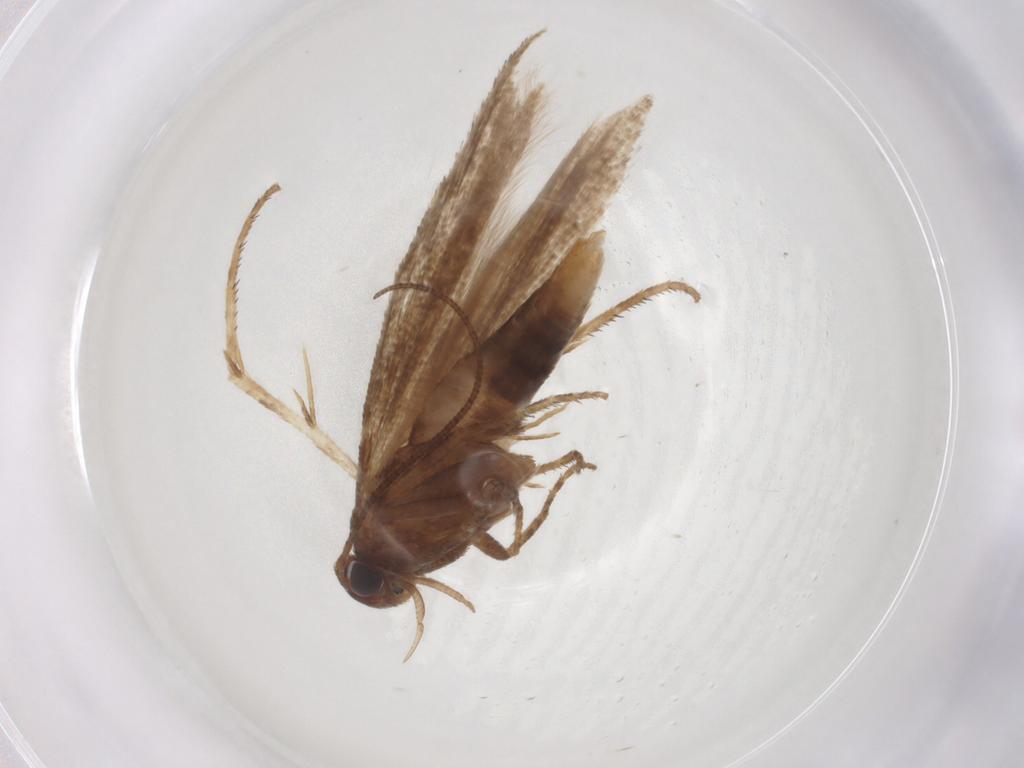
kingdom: Animalia
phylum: Arthropoda
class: Insecta
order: Lepidoptera
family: Gelechiidae
